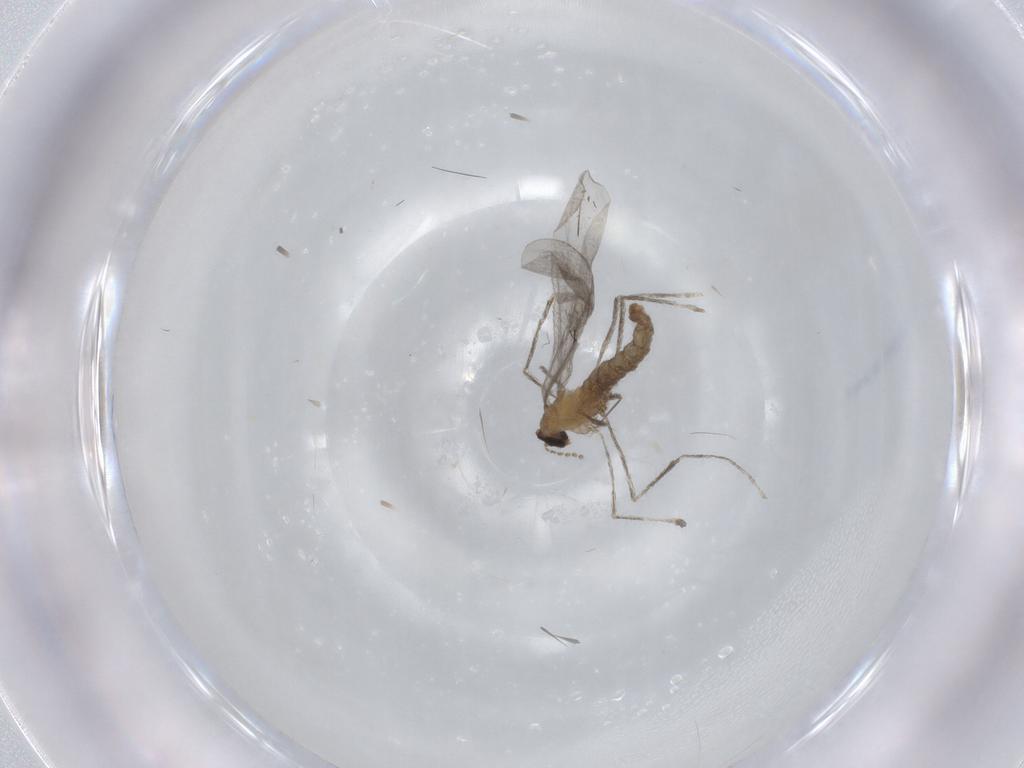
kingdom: Animalia
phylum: Arthropoda
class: Insecta
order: Diptera
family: Cecidomyiidae
